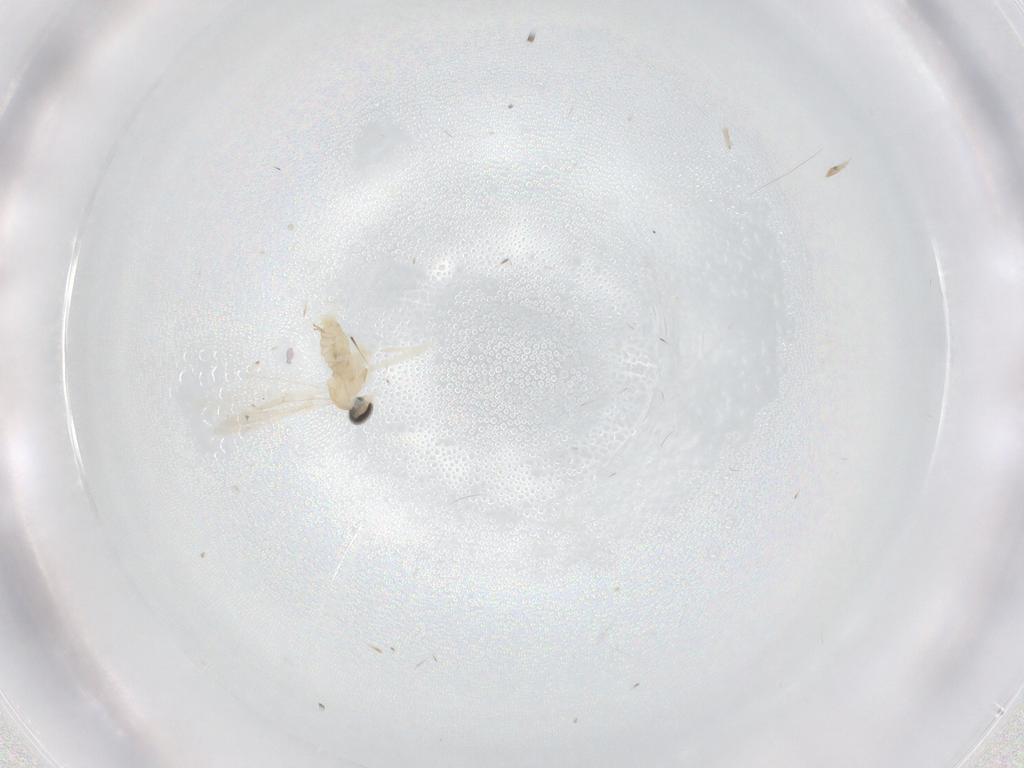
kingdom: Animalia
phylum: Arthropoda
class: Insecta
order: Diptera
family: Cecidomyiidae
